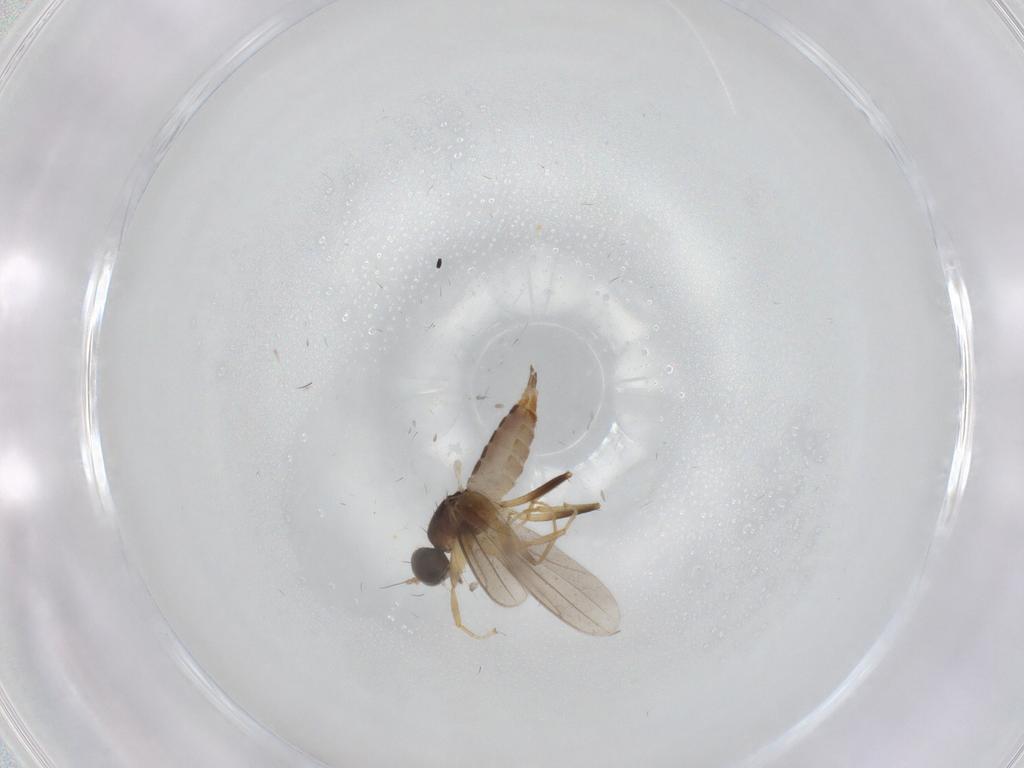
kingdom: Animalia
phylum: Arthropoda
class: Insecta
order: Diptera
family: Hybotidae
